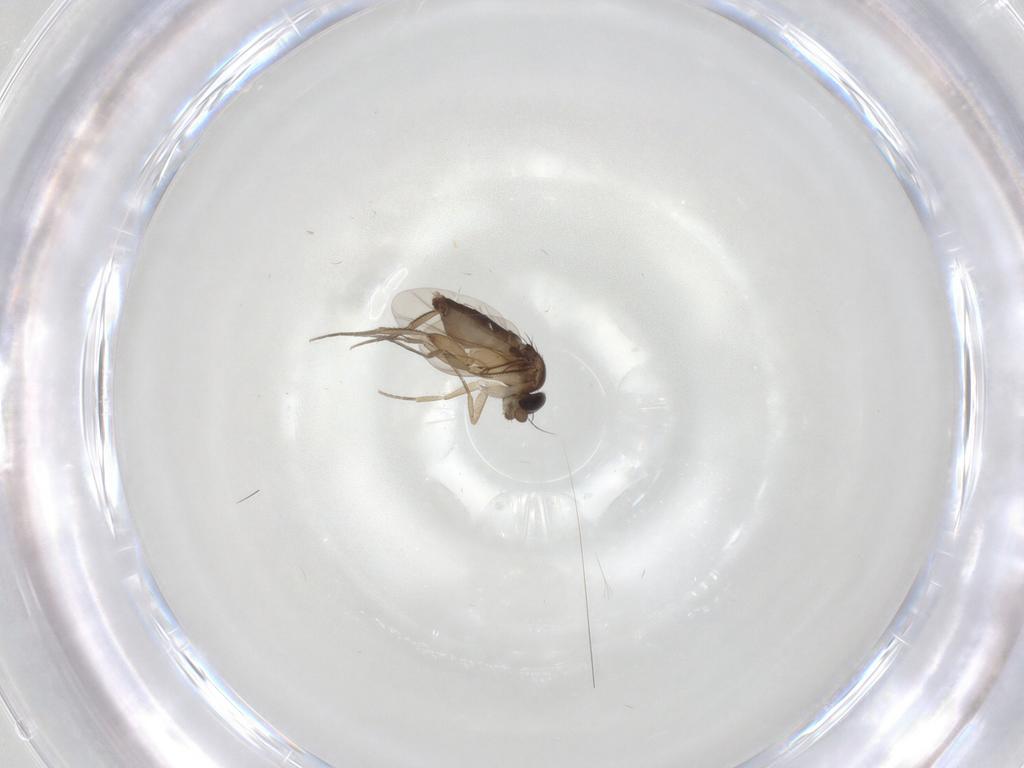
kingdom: Animalia
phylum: Arthropoda
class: Insecta
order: Diptera
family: Phoridae
